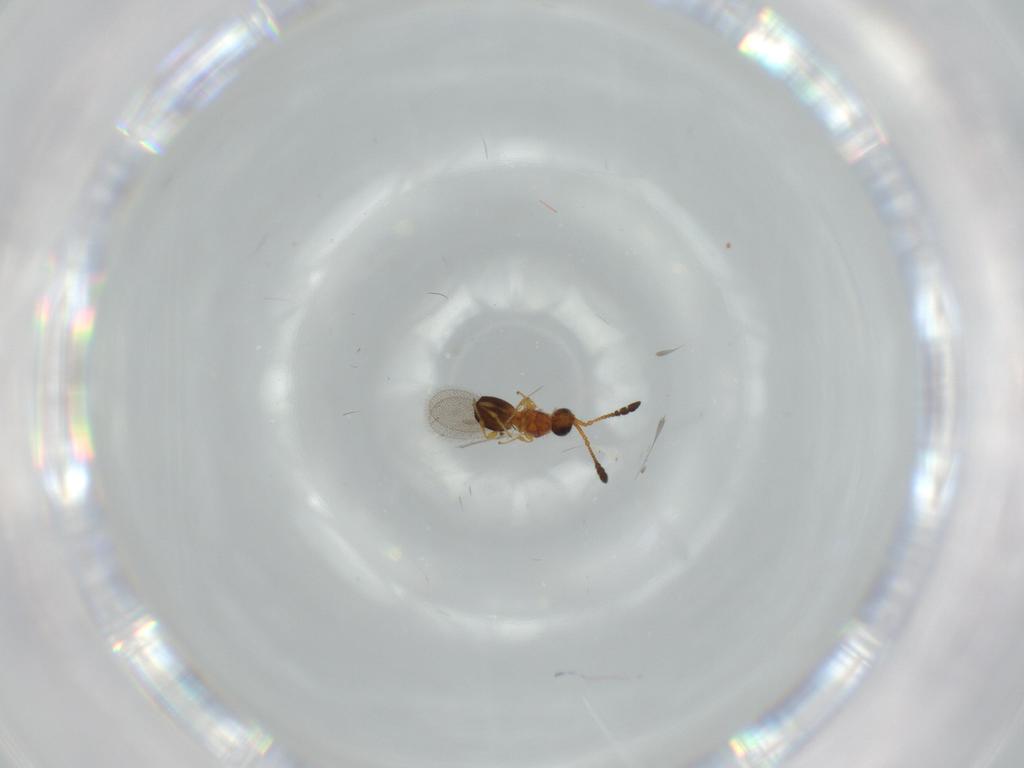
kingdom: Animalia
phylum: Arthropoda
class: Insecta
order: Hymenoptera
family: Diapriidae
